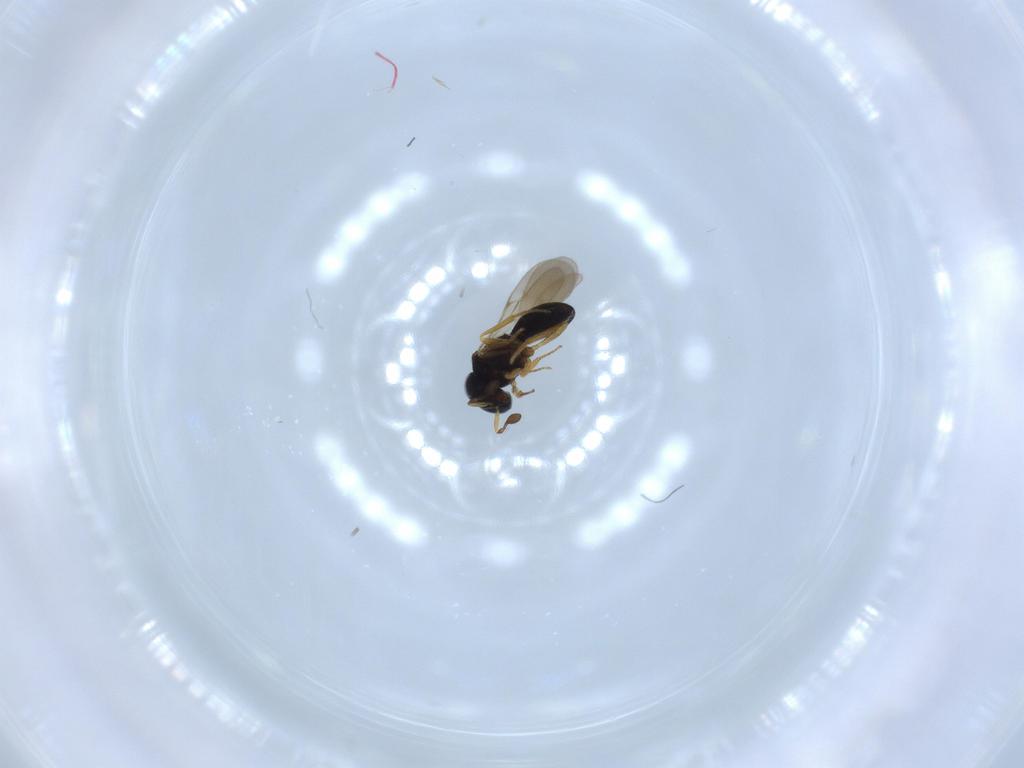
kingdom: Animalia
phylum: Arthropoda
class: Insecta
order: Hymenoptera
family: Scelionidae
